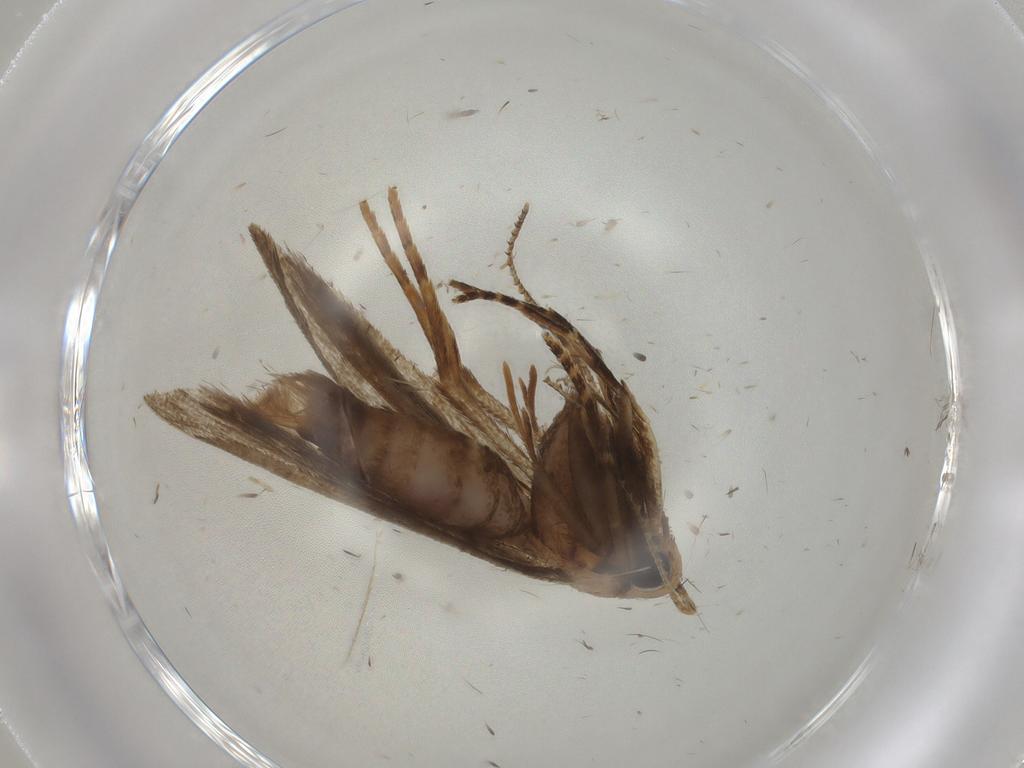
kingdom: Animalia
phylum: Arthropoda
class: Insecta
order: Lepidoptera
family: Gelechiidae
